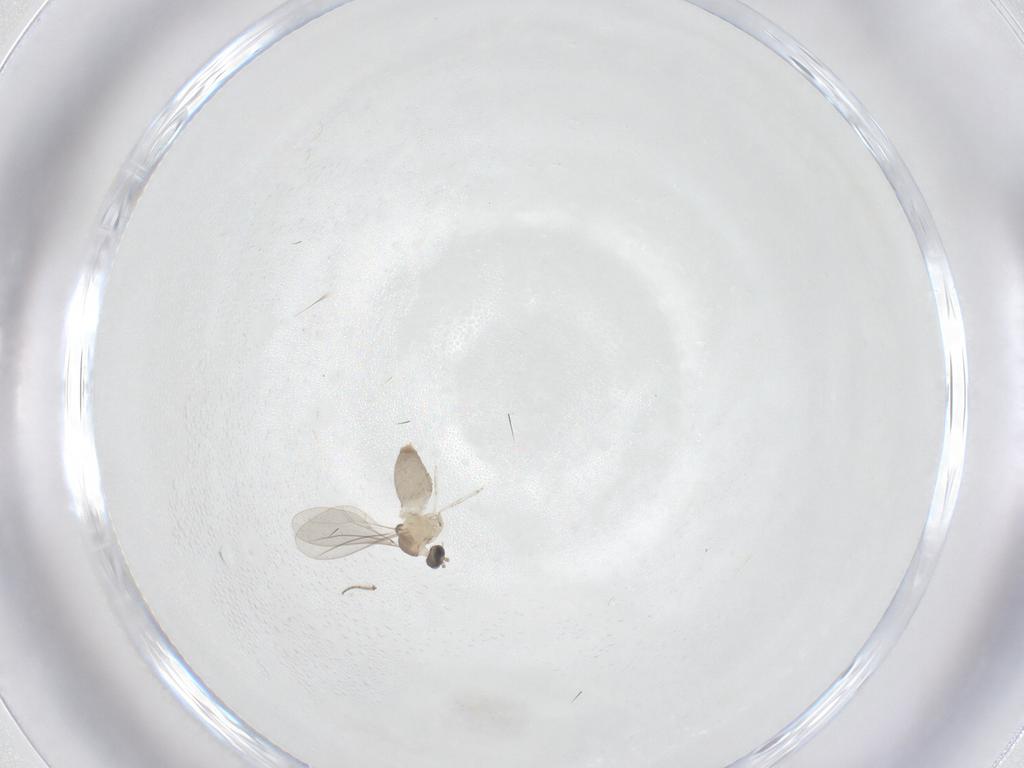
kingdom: Animalia
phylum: Arthropoda
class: Insecta
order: Diptera
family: Cecidomyiidae
